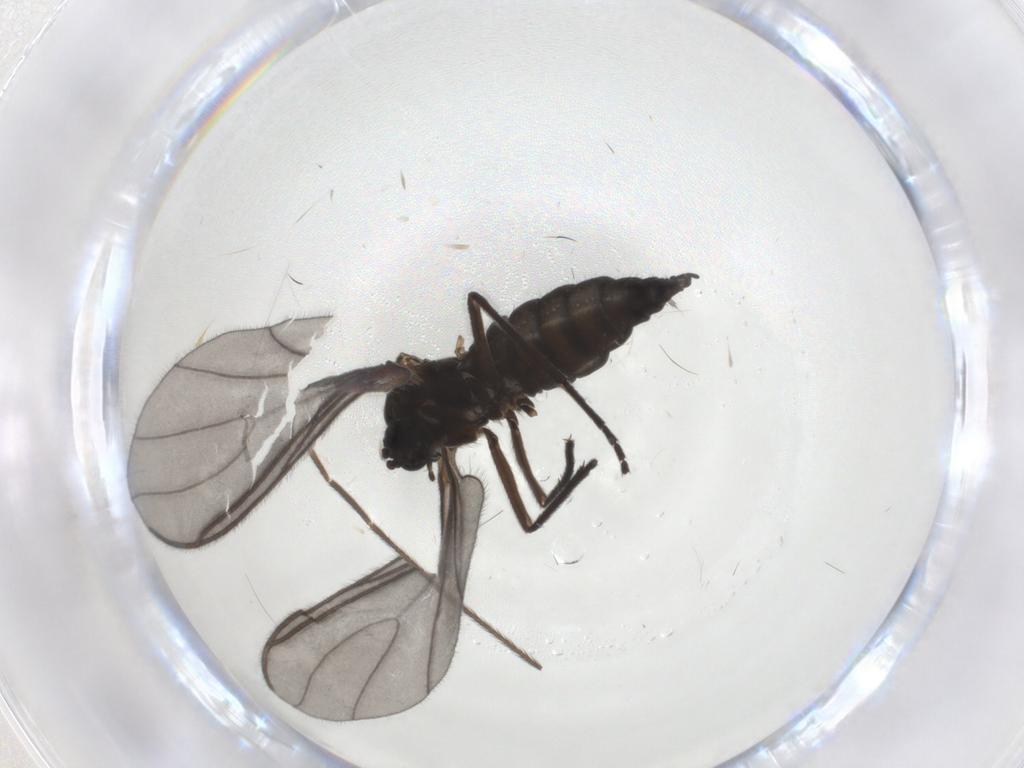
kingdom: Animalia
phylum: Arthropoda
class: Insecta
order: Diptera
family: Sciaridae
